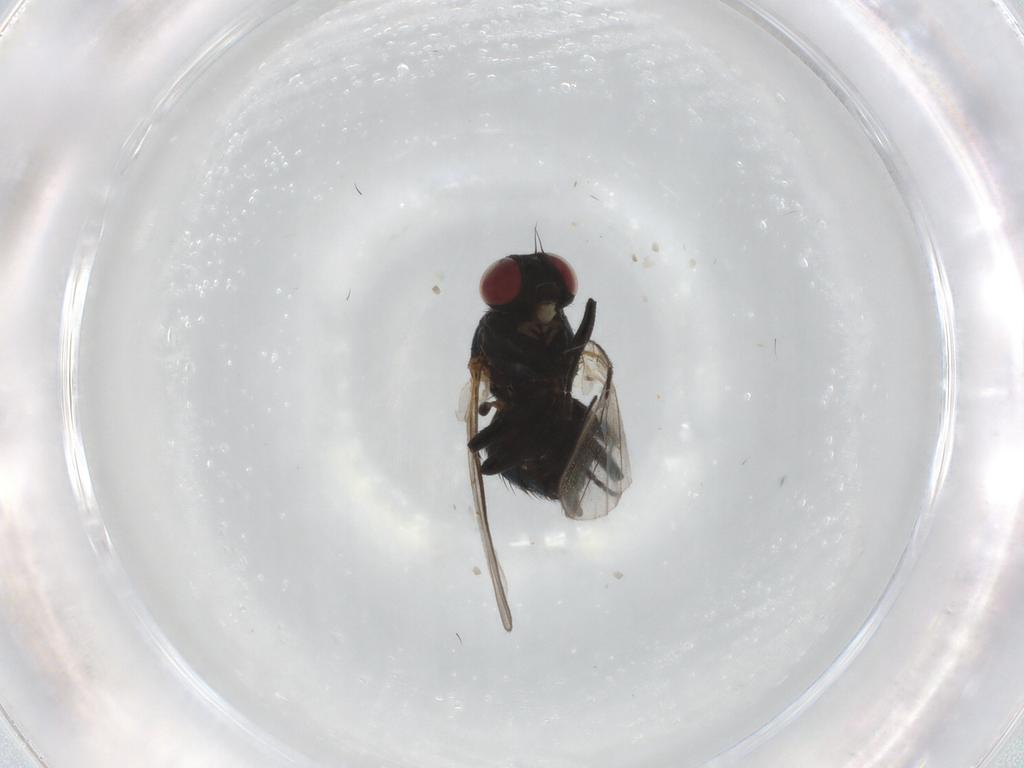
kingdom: Animalia
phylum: Arthropoda
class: Insecta
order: Diptera
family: Agromyzidae
